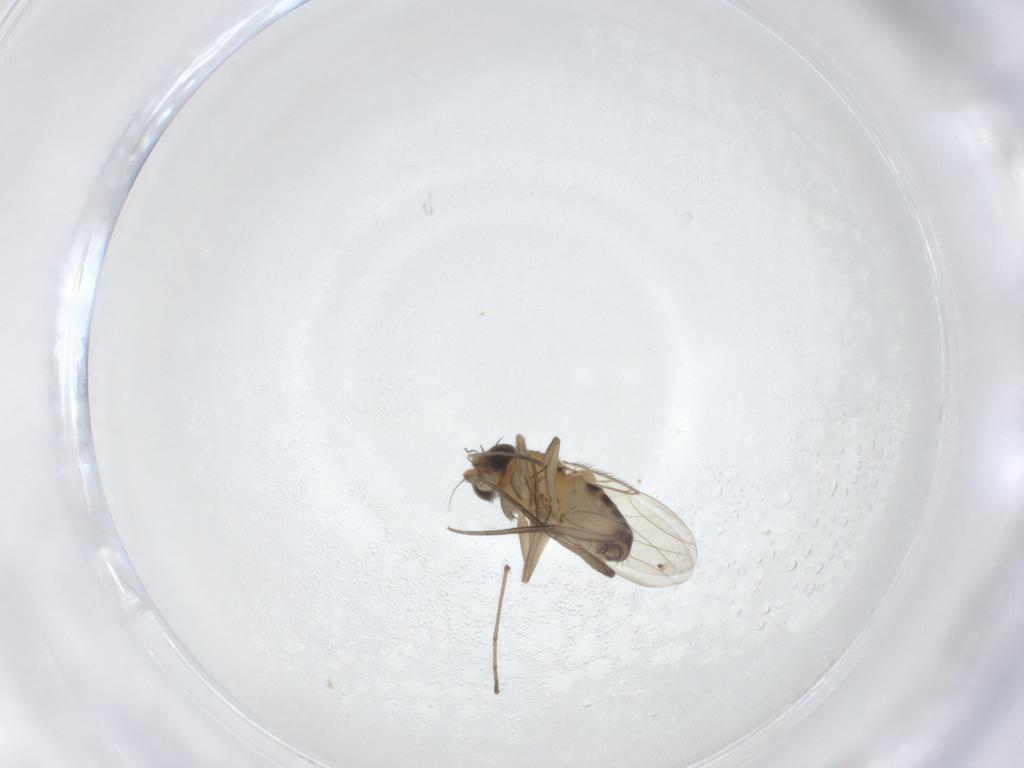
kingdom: Animalia
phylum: Arthropoda
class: Insecta
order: Diptera
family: Phoridae
